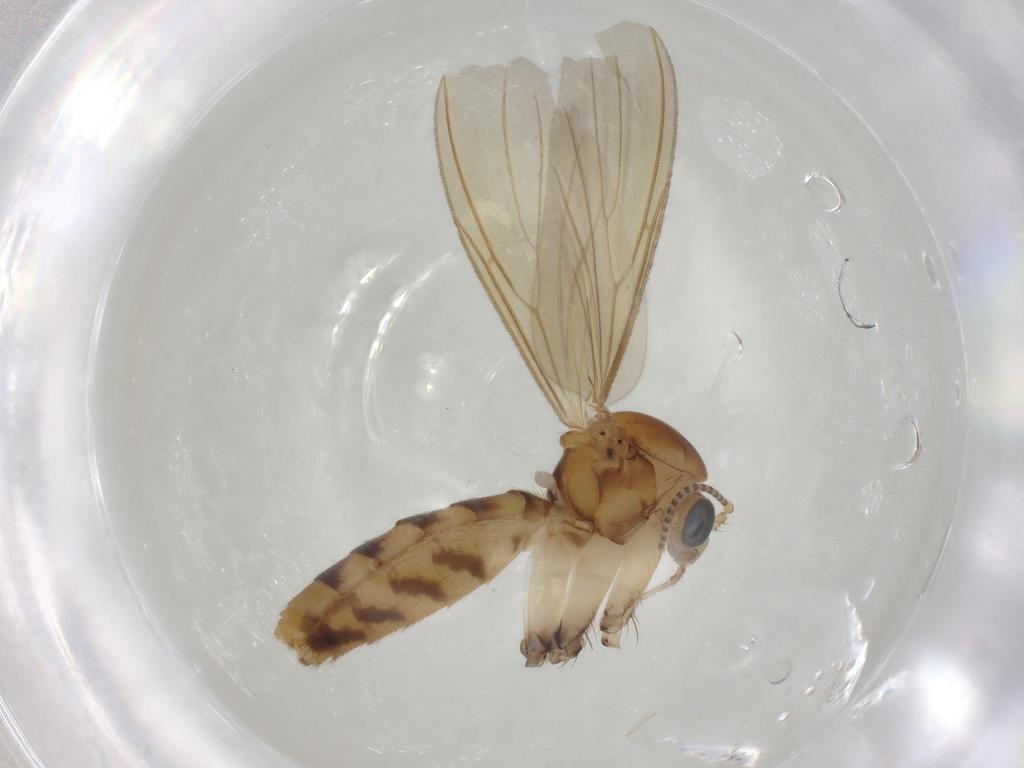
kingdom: Animalia
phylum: Arthropoda
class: Insecta
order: Diptera
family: Mycetophilidae
